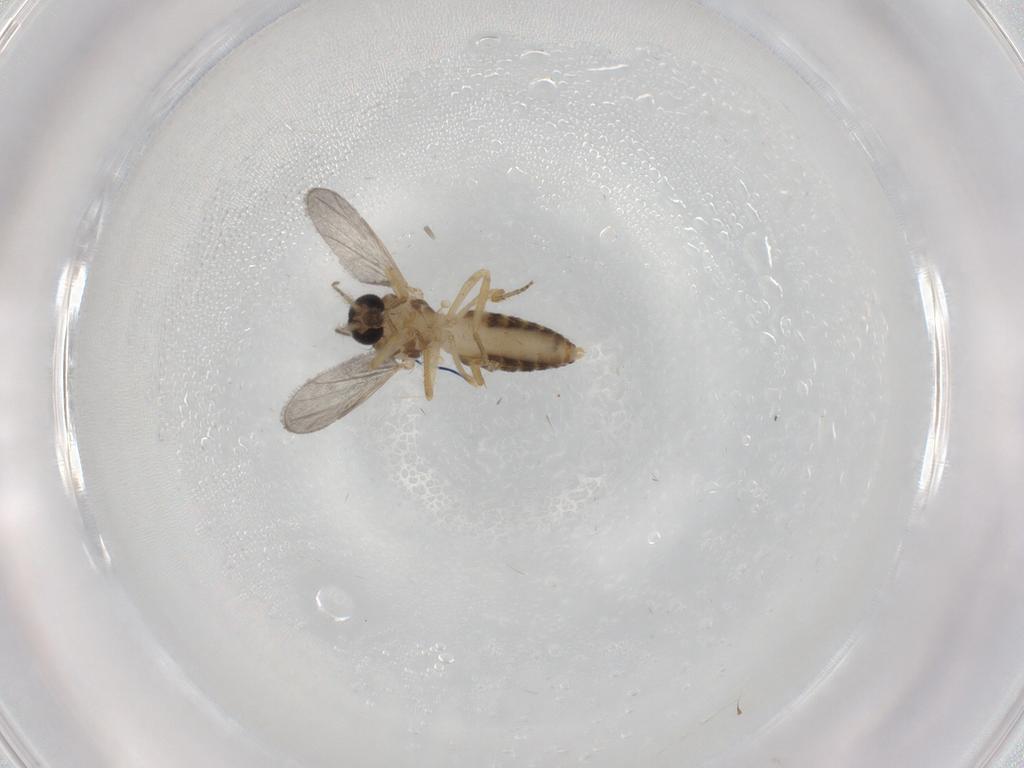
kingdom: Animalia
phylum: Arthropoda
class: Insecta
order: Diptera
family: Ceratopogonidae
